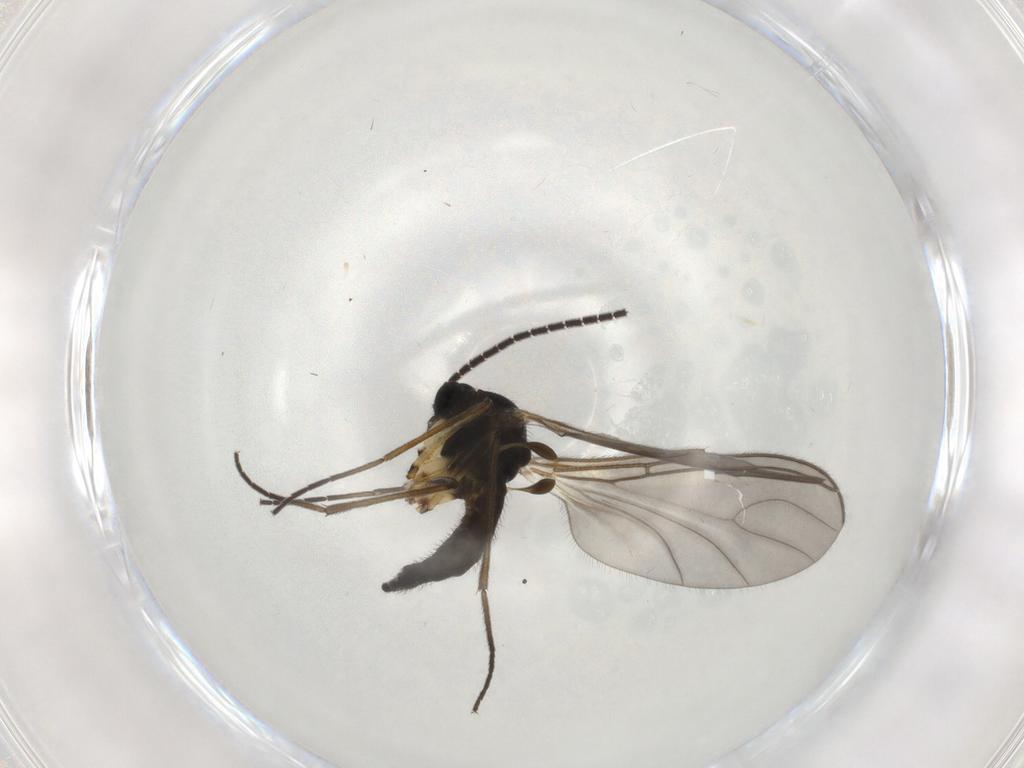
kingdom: Animalia
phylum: Arthropoda
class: Insecta
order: Diptera
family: Sciaridae
